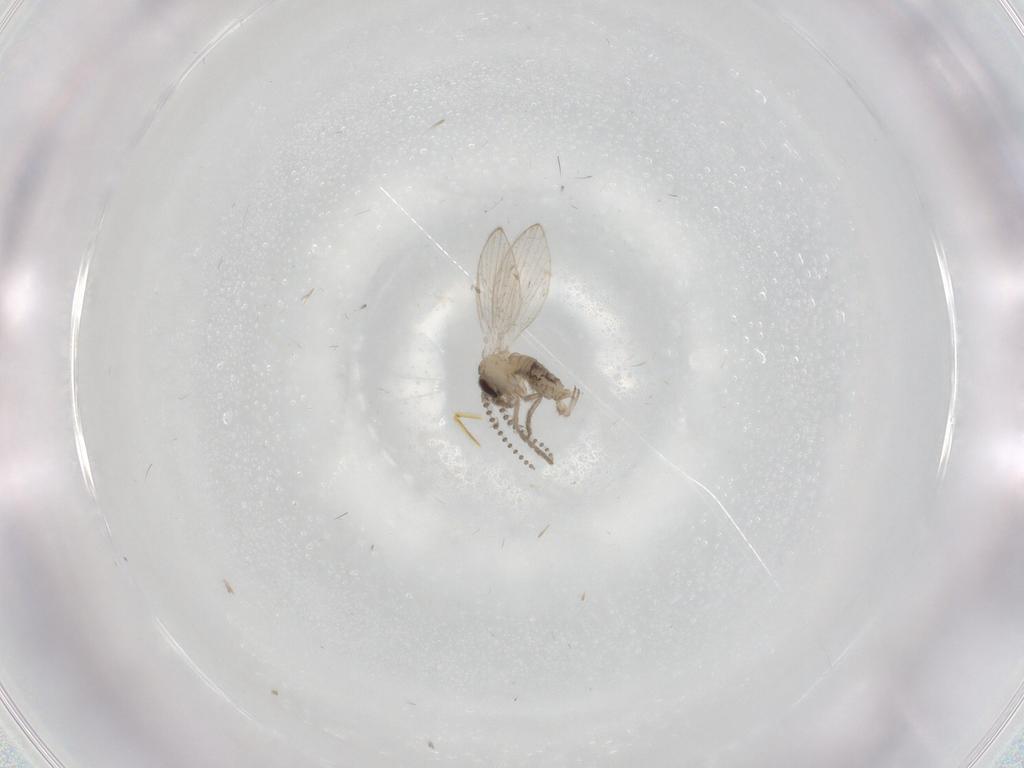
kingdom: Animalia
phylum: Arthropoda
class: Insecta
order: Diptera
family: Psychodidae
